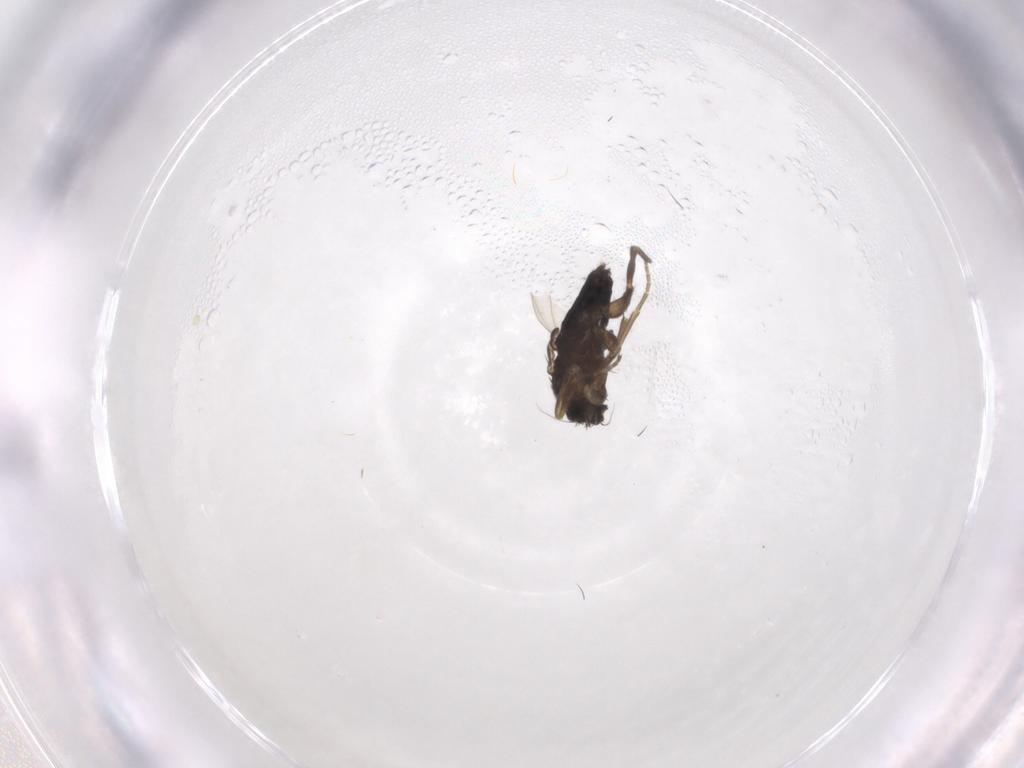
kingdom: Animalia
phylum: Arthropoda
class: Insecta
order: Diptera
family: Phoridae
